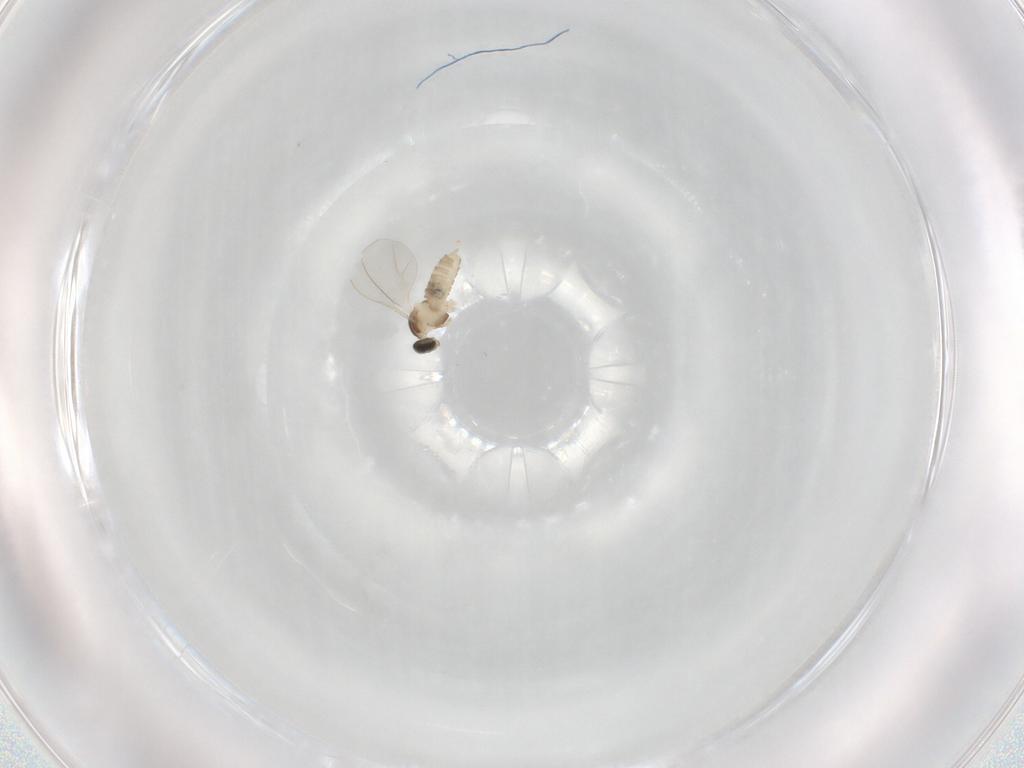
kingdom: Animalia
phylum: Arthropoda
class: Insecta
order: Diptera
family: Cecidomyiidae
